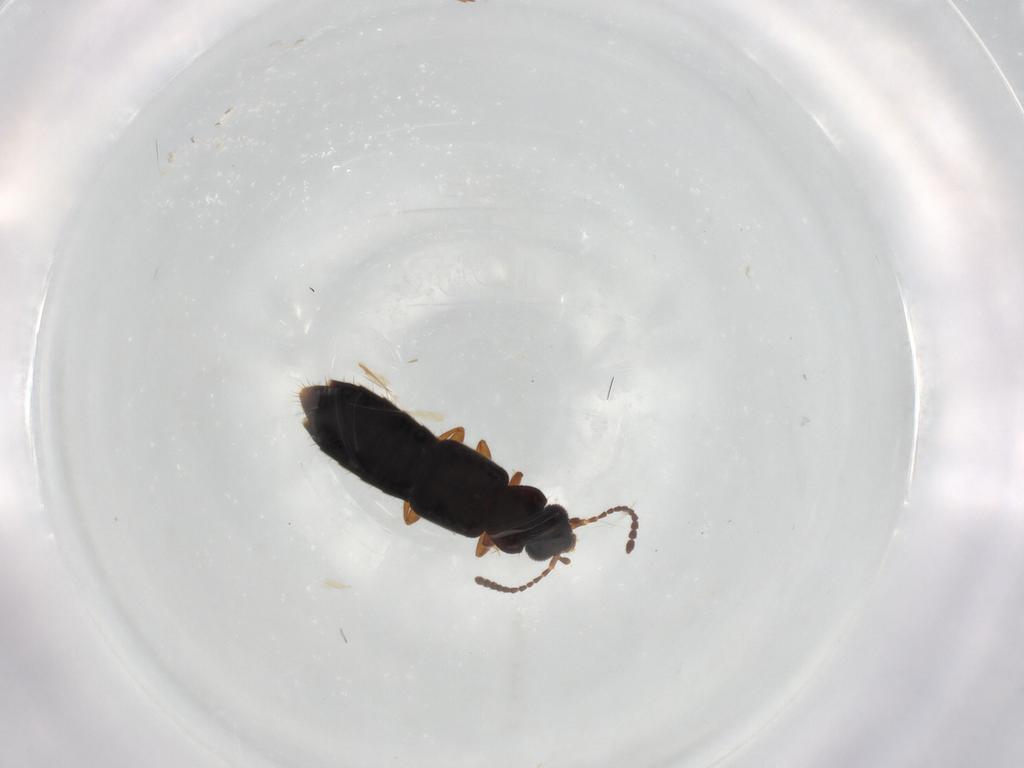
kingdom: Animalia
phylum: Arthropoda
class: Insecta
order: Coleoptera
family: Staphylinidae
